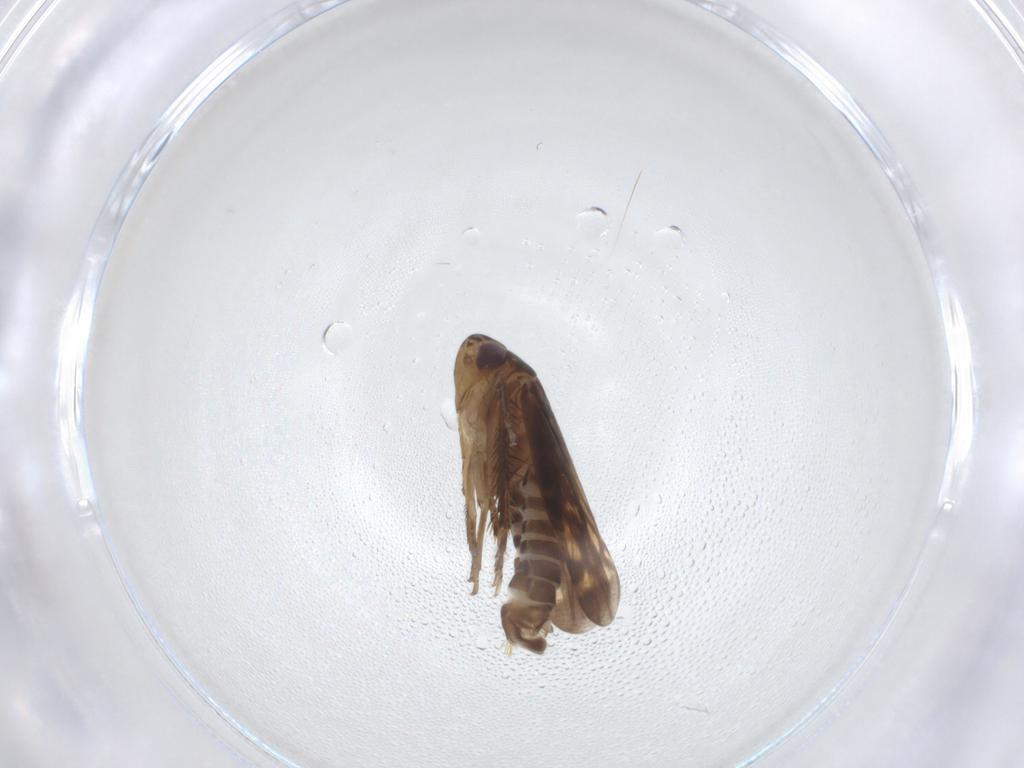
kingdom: Animalia
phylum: Arthropoda
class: Insecta
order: Hemiptera
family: Cicadellidae
